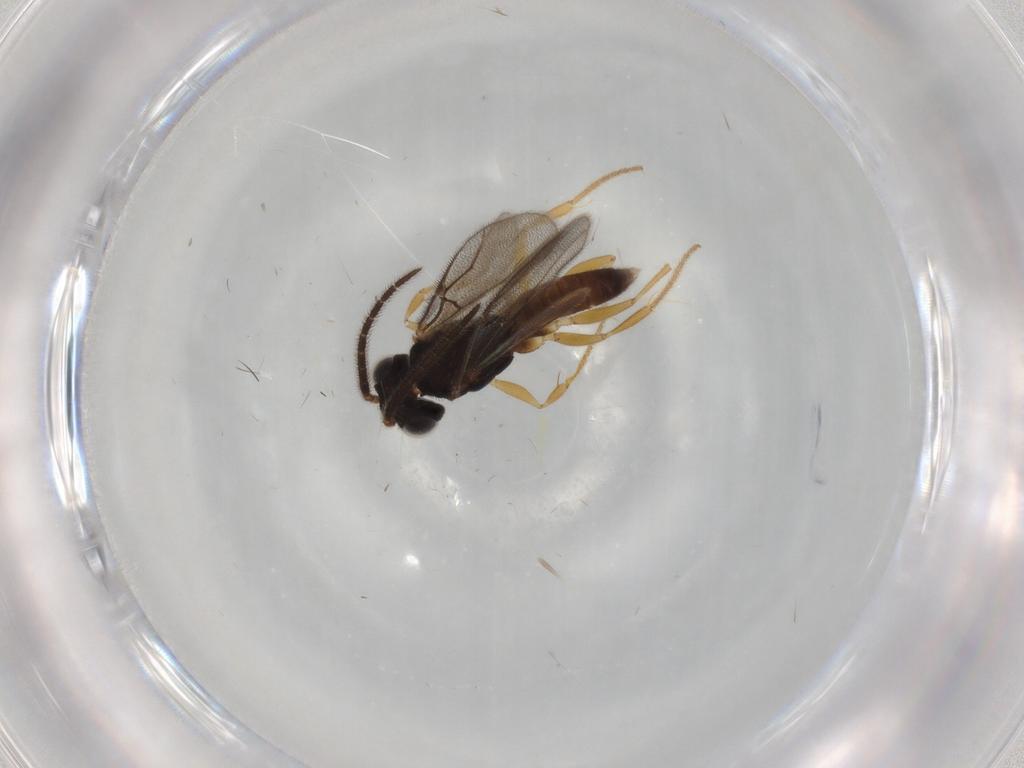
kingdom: Animalia
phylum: Arthropoda
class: Insecta
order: Hymenoptera
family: Dryinidae
